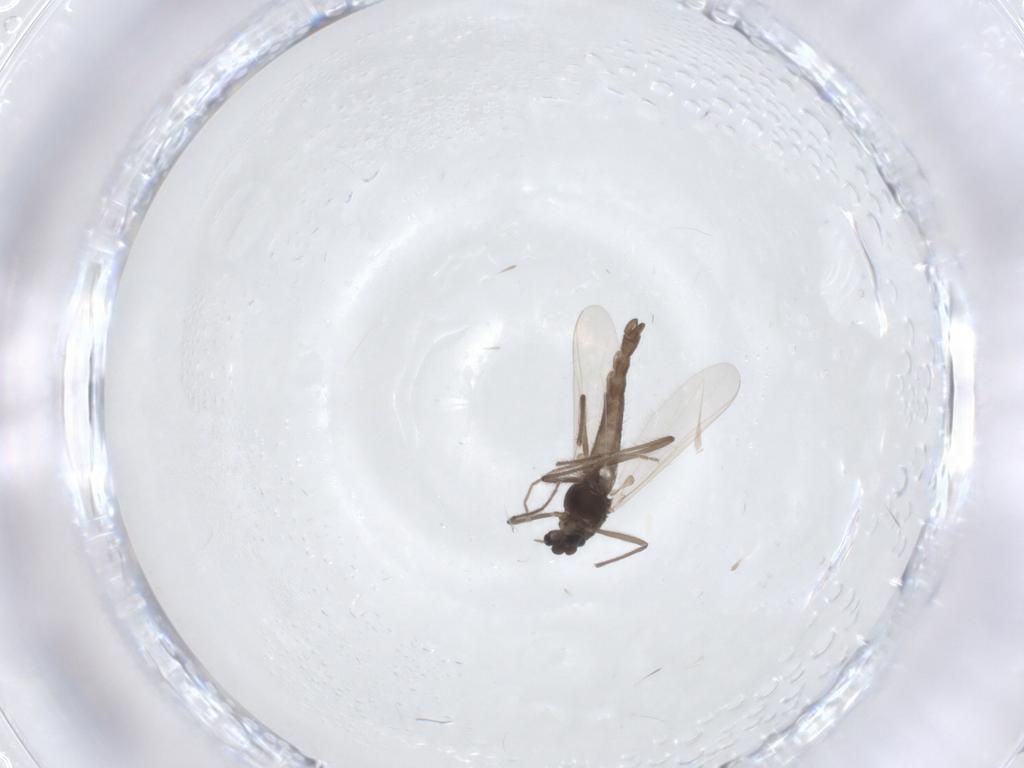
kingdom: Animalia
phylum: Arthropoda
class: Insecta
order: Diptera
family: Chironomidae
